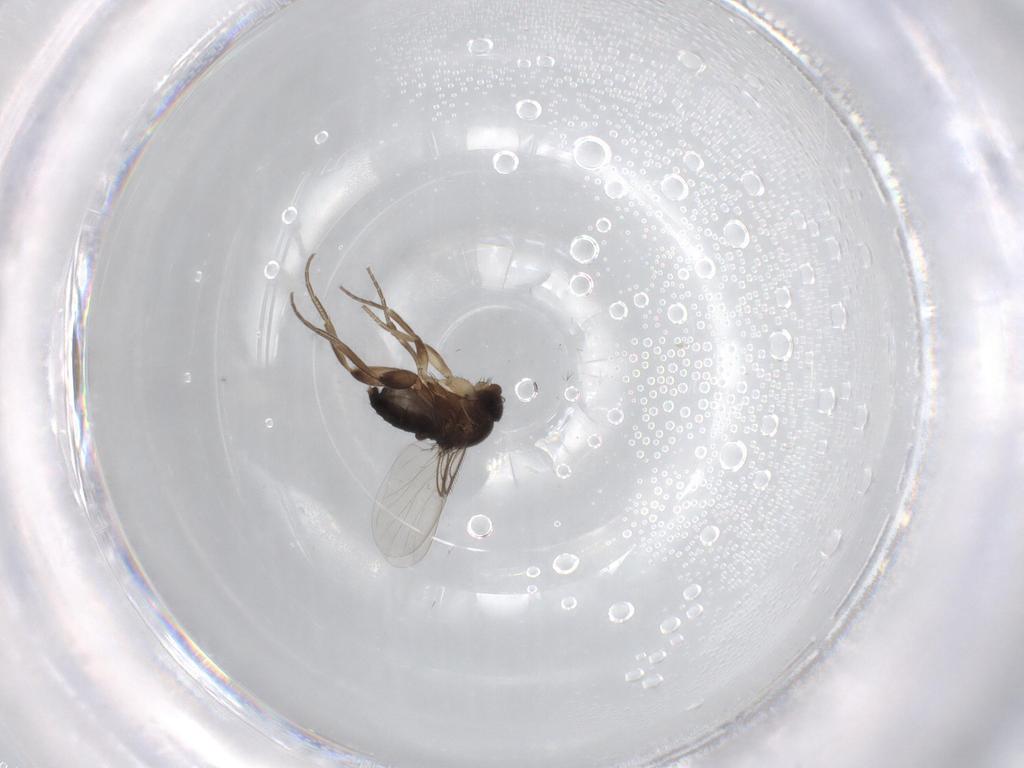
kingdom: Animalia
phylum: Arthropoda
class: Insecta
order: Diptera
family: Phoridae
